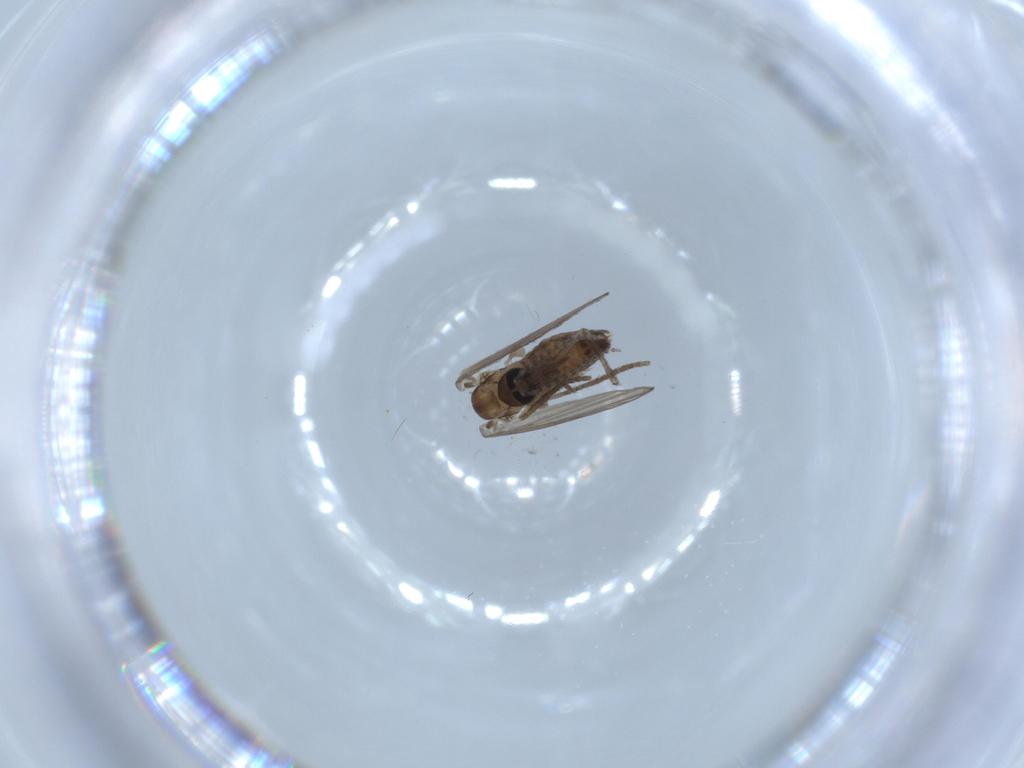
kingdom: Animalia
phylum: Arthropoda
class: Insecta
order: Diptera
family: Psychodidae
